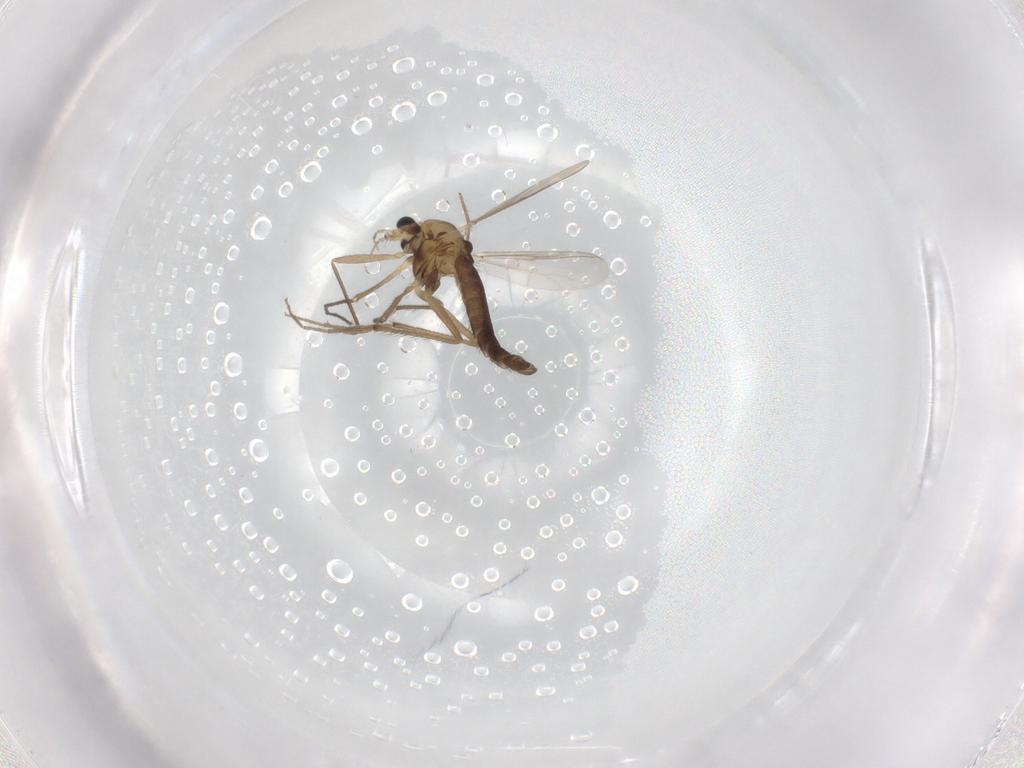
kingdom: Animalia
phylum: Arthropoda
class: Insecta
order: Diptera
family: Chironomidae
